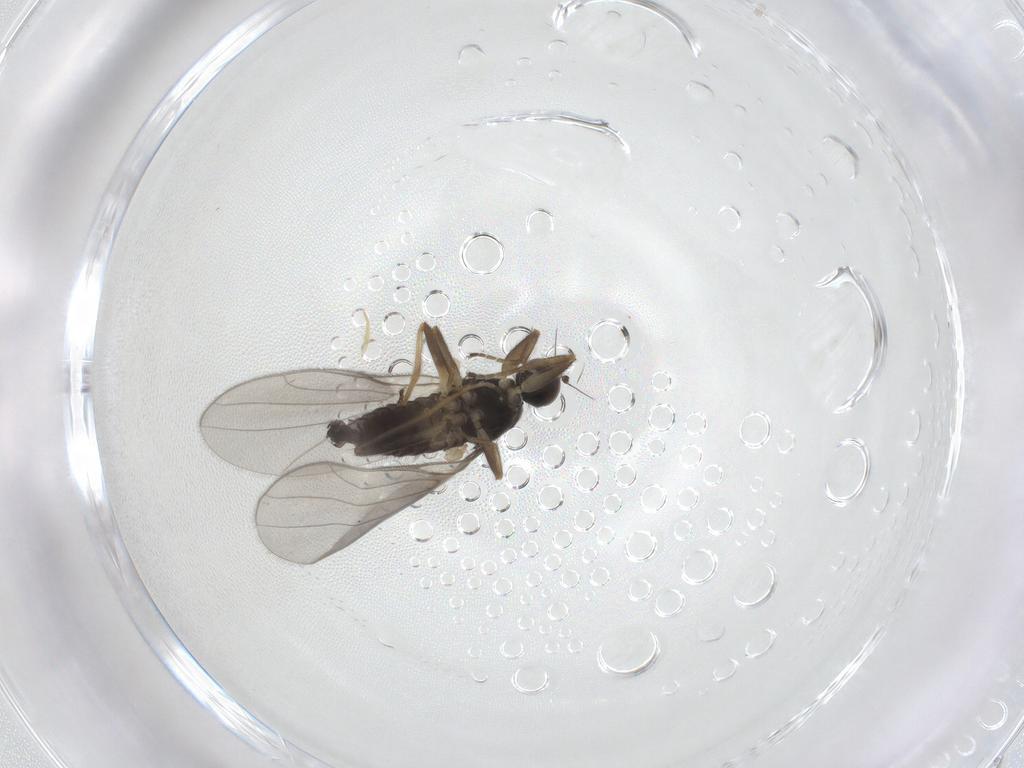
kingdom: Animalia
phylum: Arthropoda
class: Insecta
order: Diptera
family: Hybotidae
